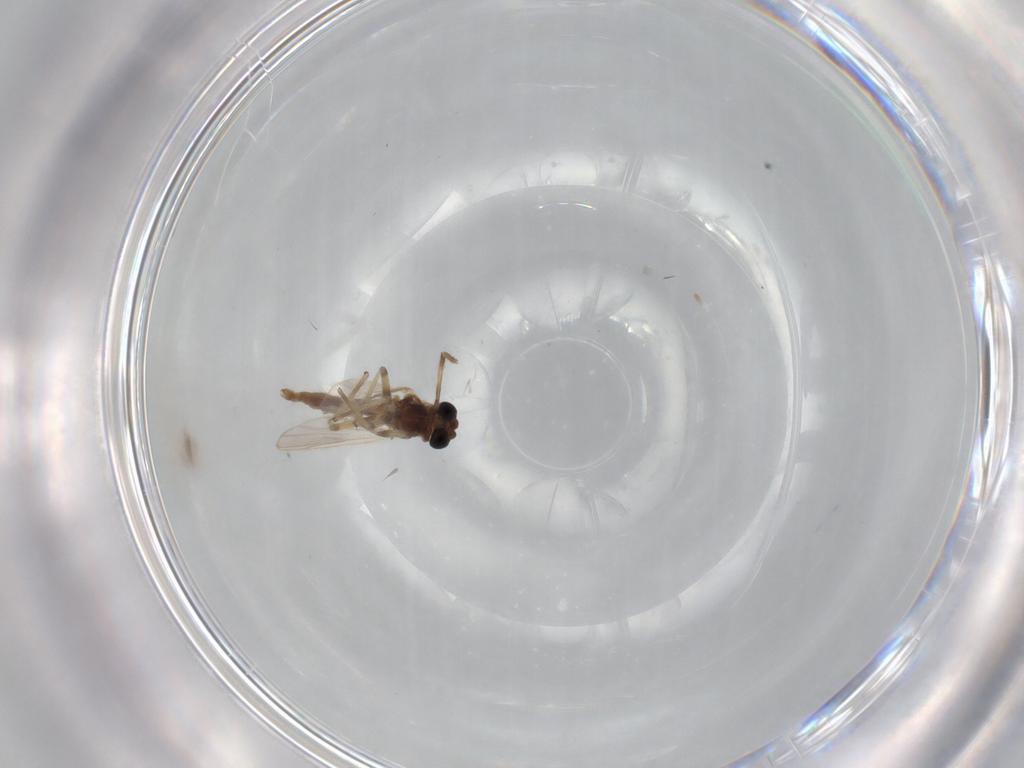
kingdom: Animalia
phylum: Arthropoda
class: Insecta
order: Diptera
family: Chironomidae
